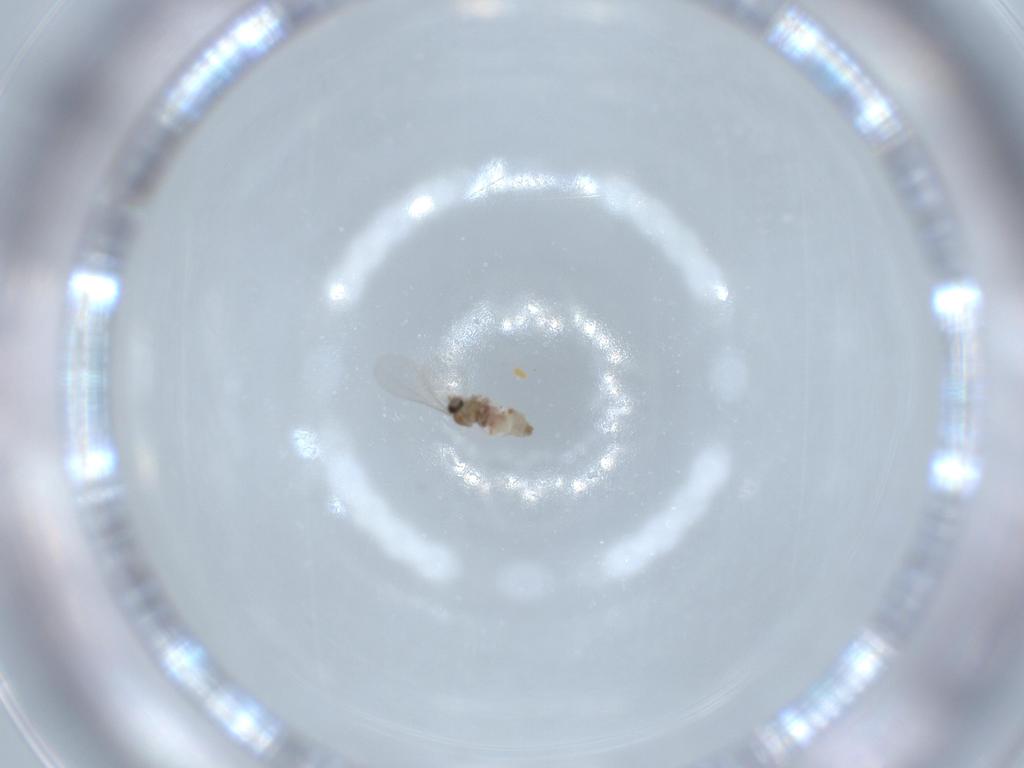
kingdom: Animalia
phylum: Arthropoda
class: Insecta
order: Diptera
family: Cecidomyiidae
